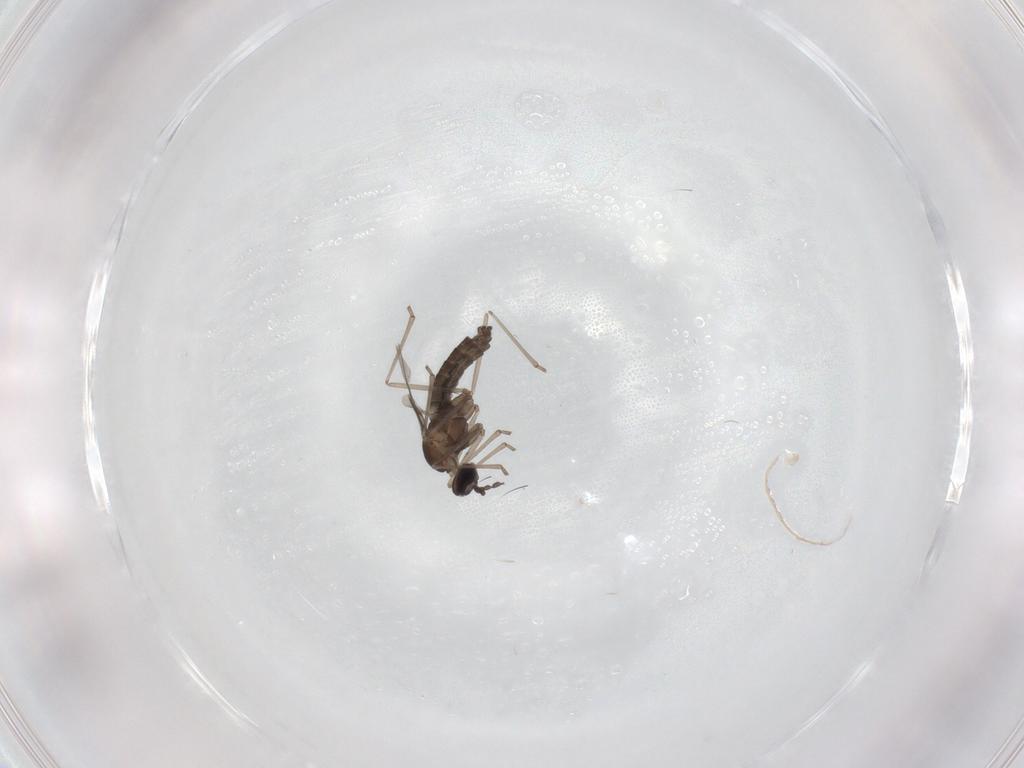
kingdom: Animalia
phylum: Arthropoda
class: Insecta
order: Diptera
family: Cecidomyiidae
